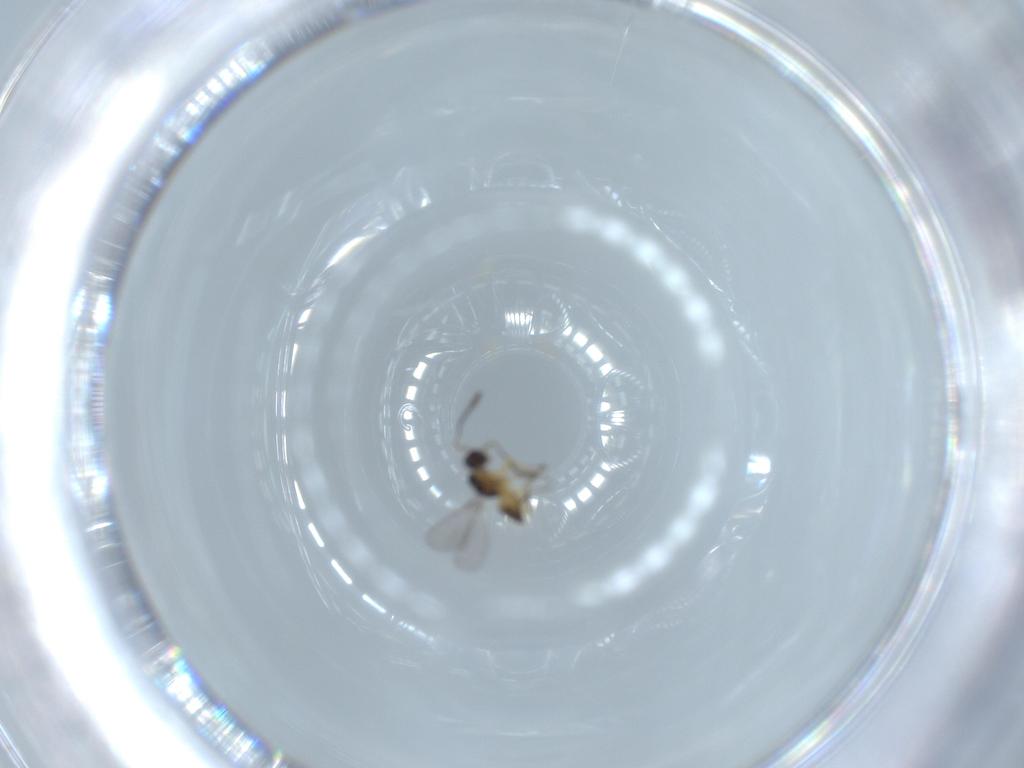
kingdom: Animalia
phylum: Arthropoda
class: Insecta
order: Hymenoptera
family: Mymaridae
